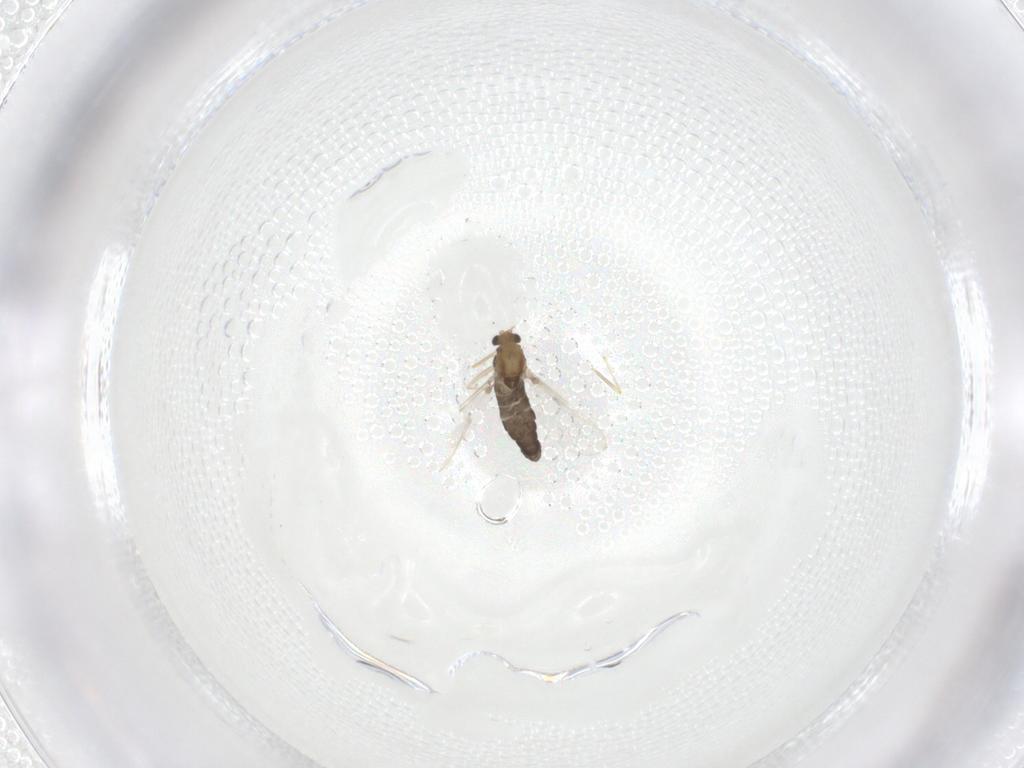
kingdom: Animalia
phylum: Arthropoda
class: Insecta
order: Diptera
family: Chironomidae
